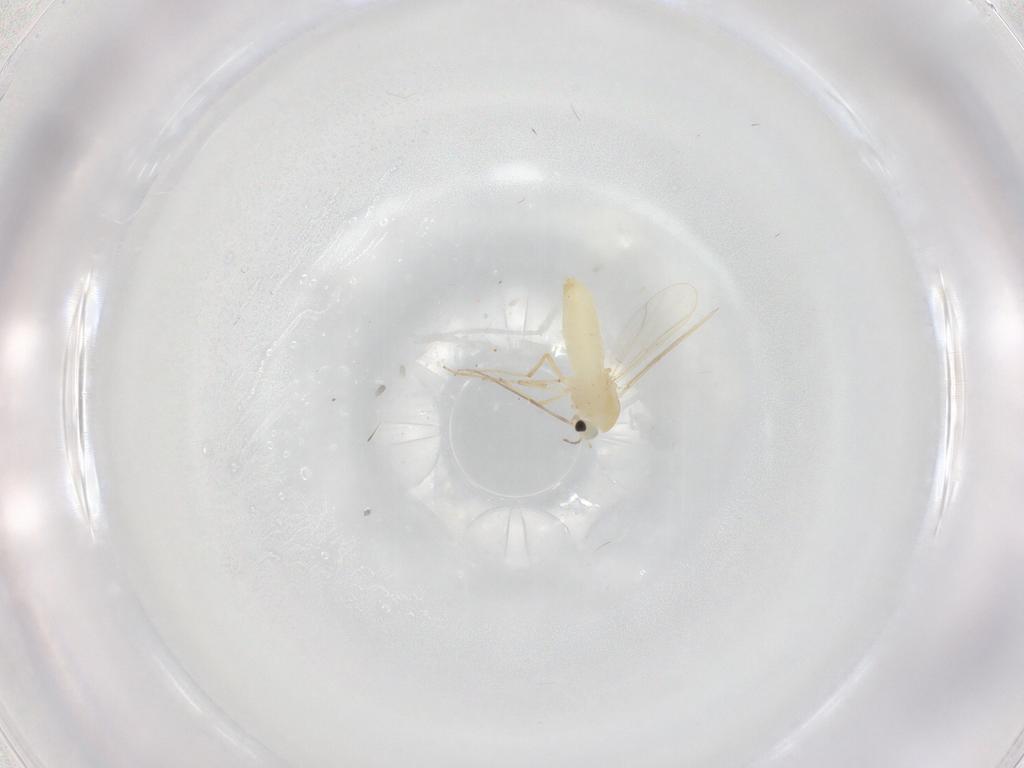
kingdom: Animalia
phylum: Arthropoda
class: Insecta
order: Diptera
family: Chironomidae
